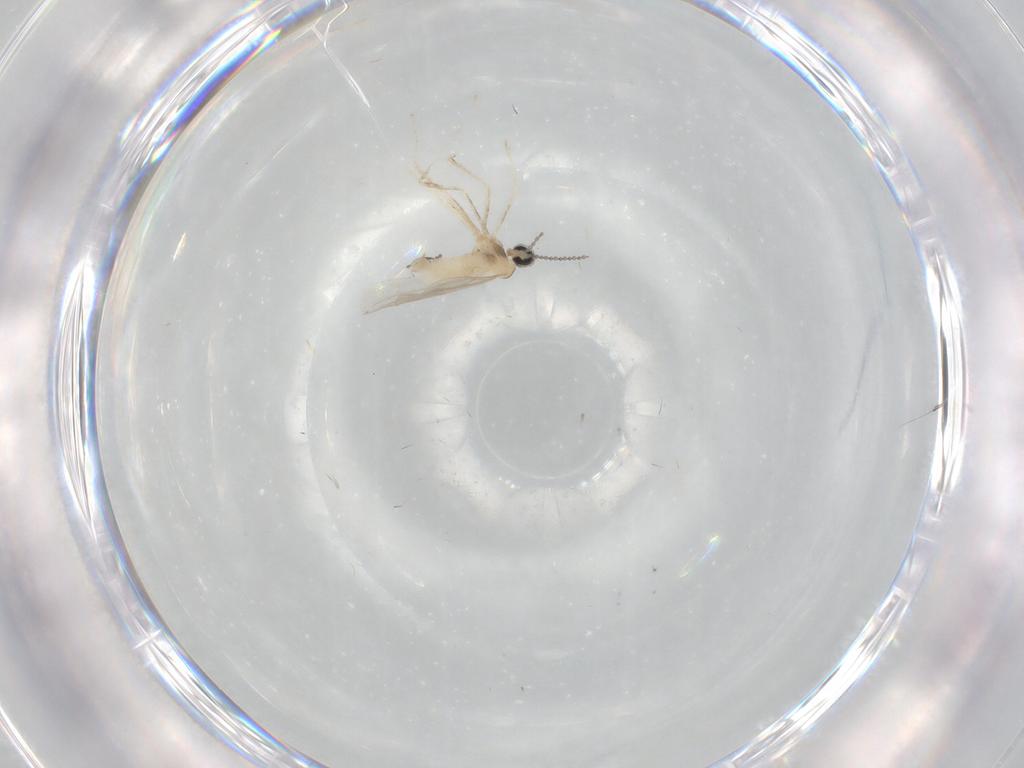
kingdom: Animalia
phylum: Arthropoda
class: Insecta
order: Diptera
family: Cecidomyiidae
